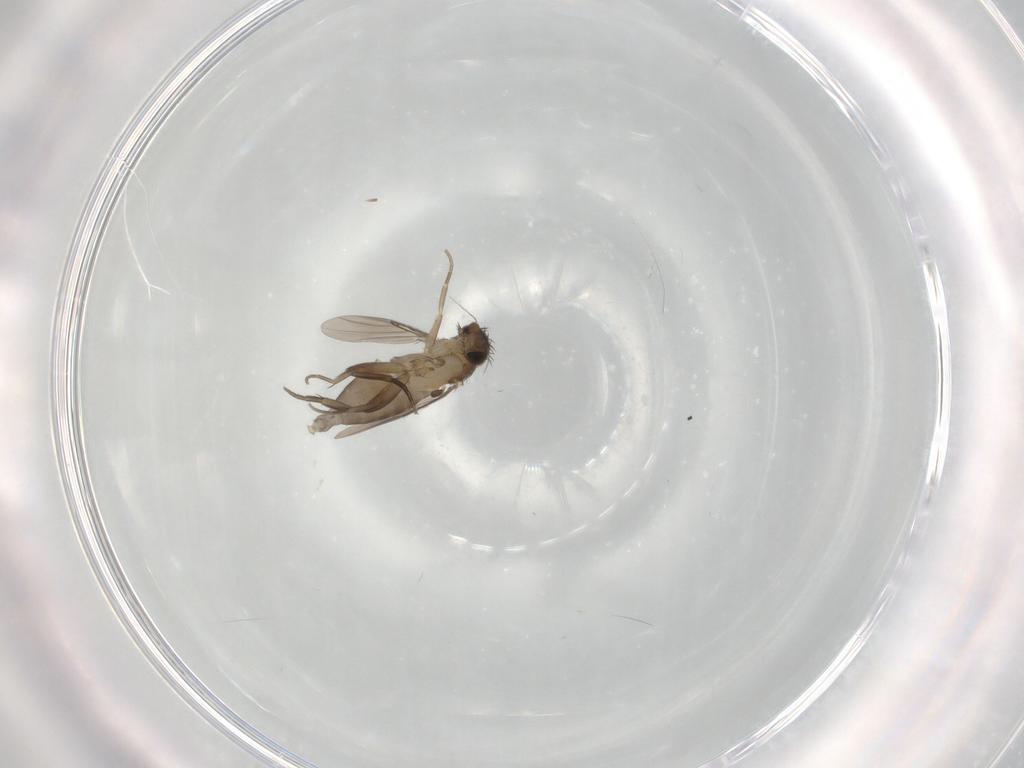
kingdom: Animalia
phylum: Arthropoda
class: Insecta
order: Diptera
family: Phoridae
